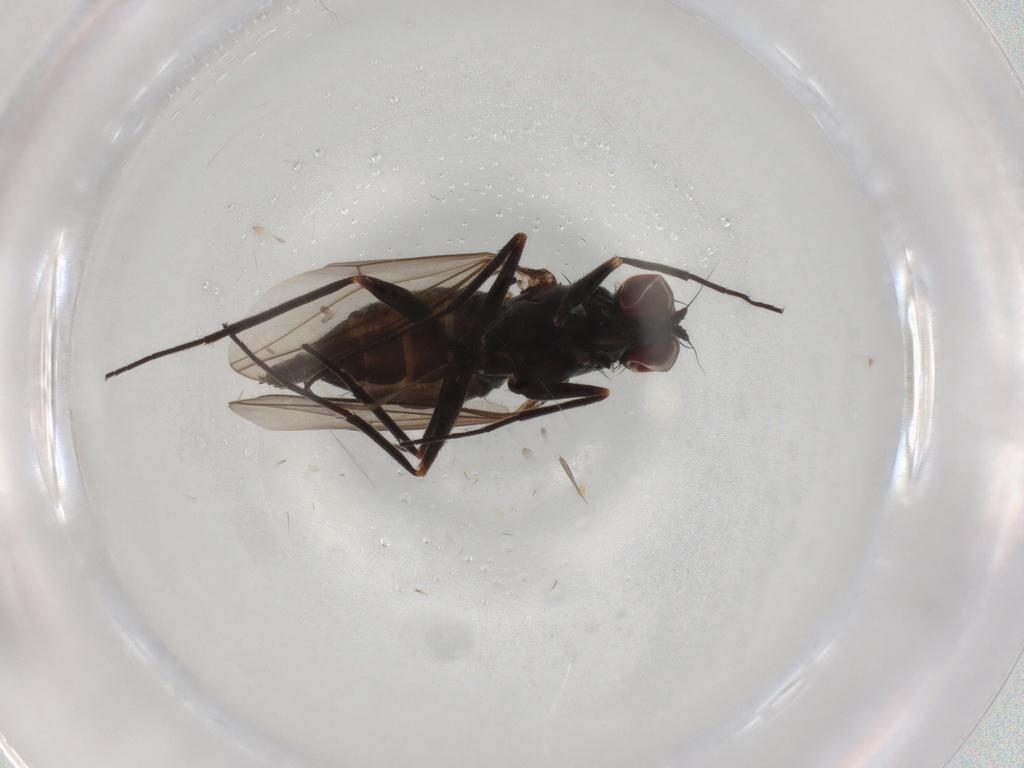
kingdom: Animalia
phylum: Arthropoda
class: Insecta
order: Diptera
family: Dolichopodidae
